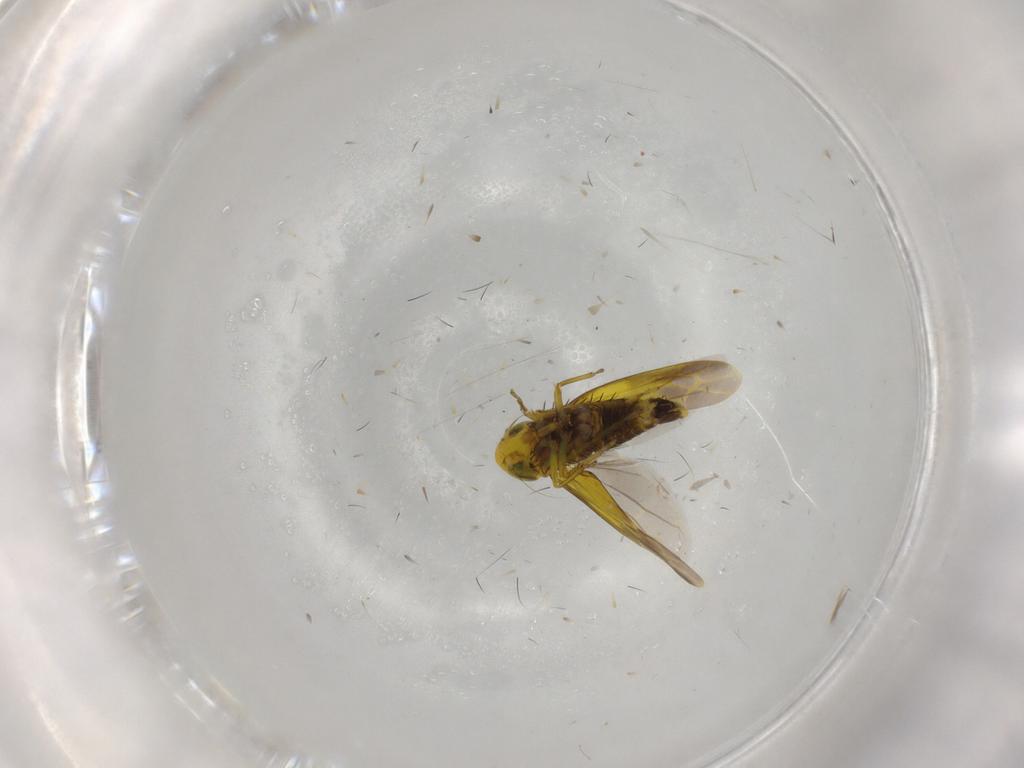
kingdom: Animalia
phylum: Arthropoda
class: Insecta
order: Hemiptera
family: Cicadellidae
